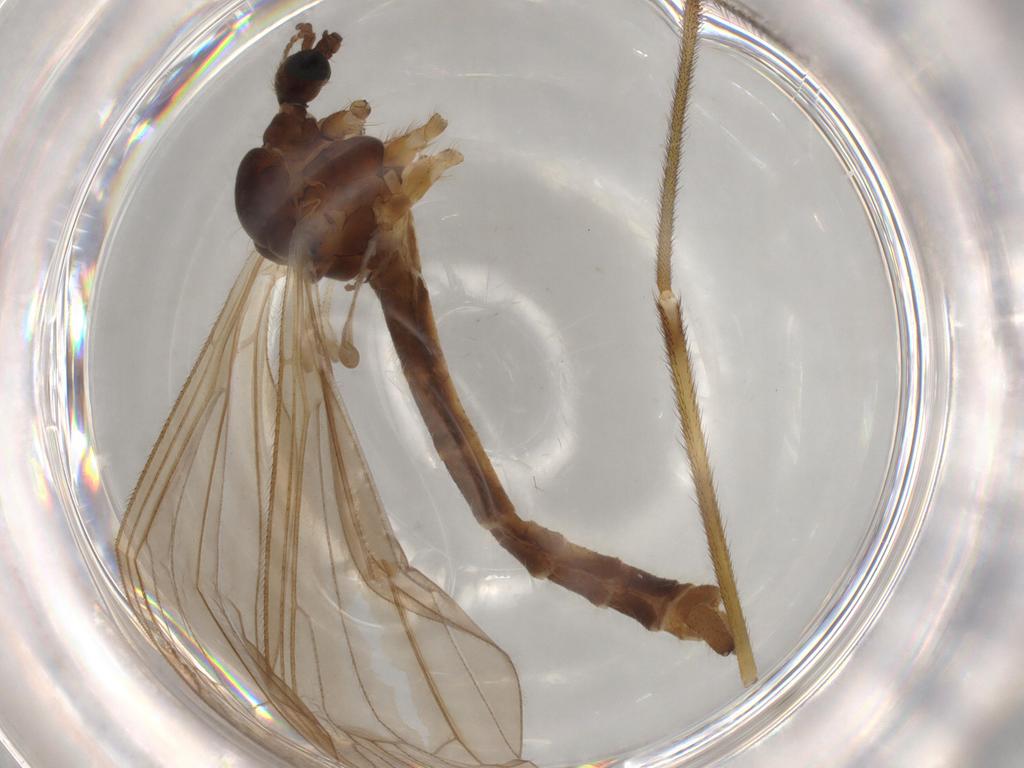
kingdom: Animalia
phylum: Arthropoda
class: Insecta
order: Diptera
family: Limoniidae
